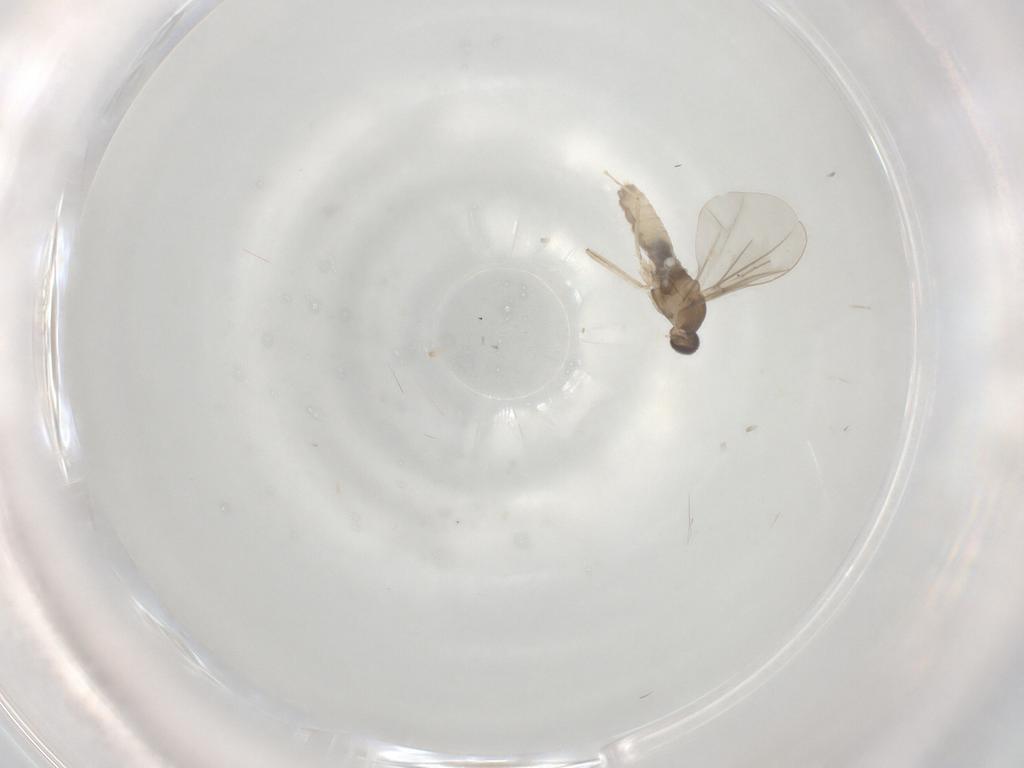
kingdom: Animalia
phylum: Arthropoda
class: Insecta
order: Diptera
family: Cecidomyiidae
